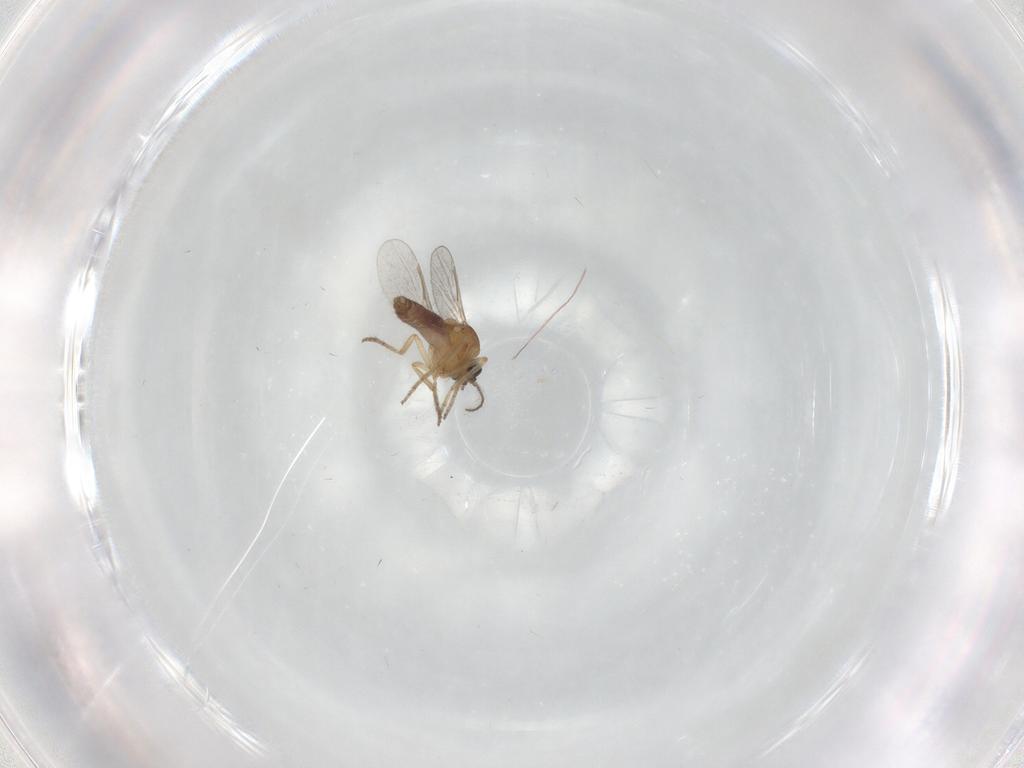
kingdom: Animalia
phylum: Arthropoda
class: Insecta
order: Diptera
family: Ceratopogonidae
